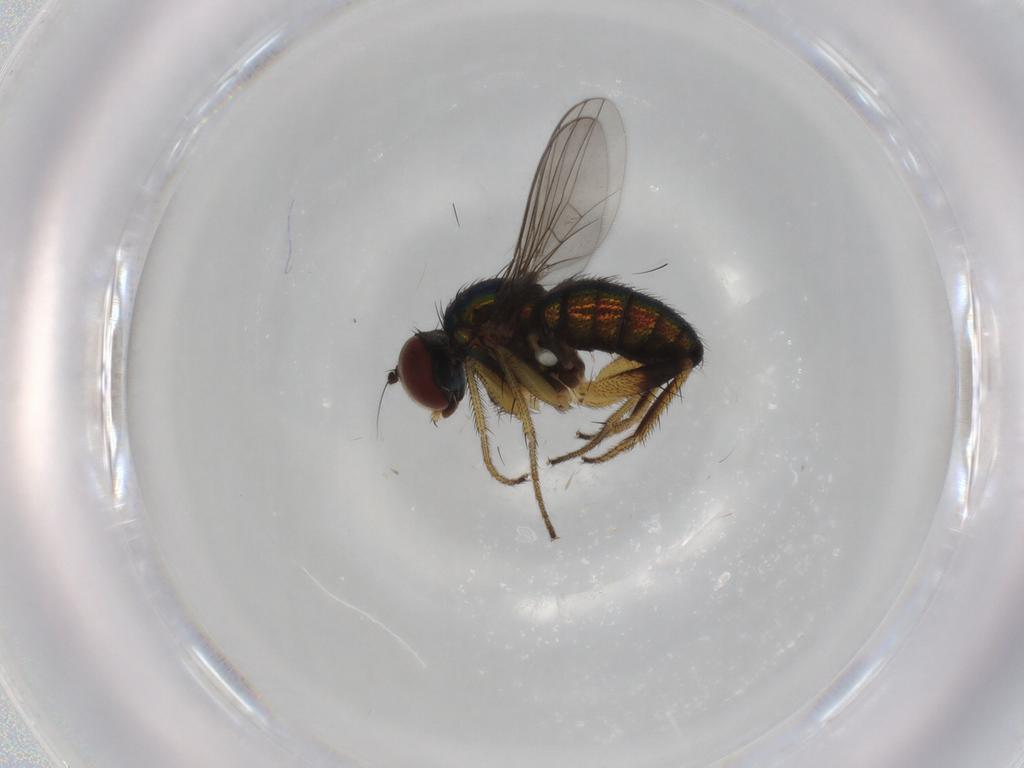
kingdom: Animalia
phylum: Arthropoda
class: Insecta
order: Diptera
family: Dolichopodidae
